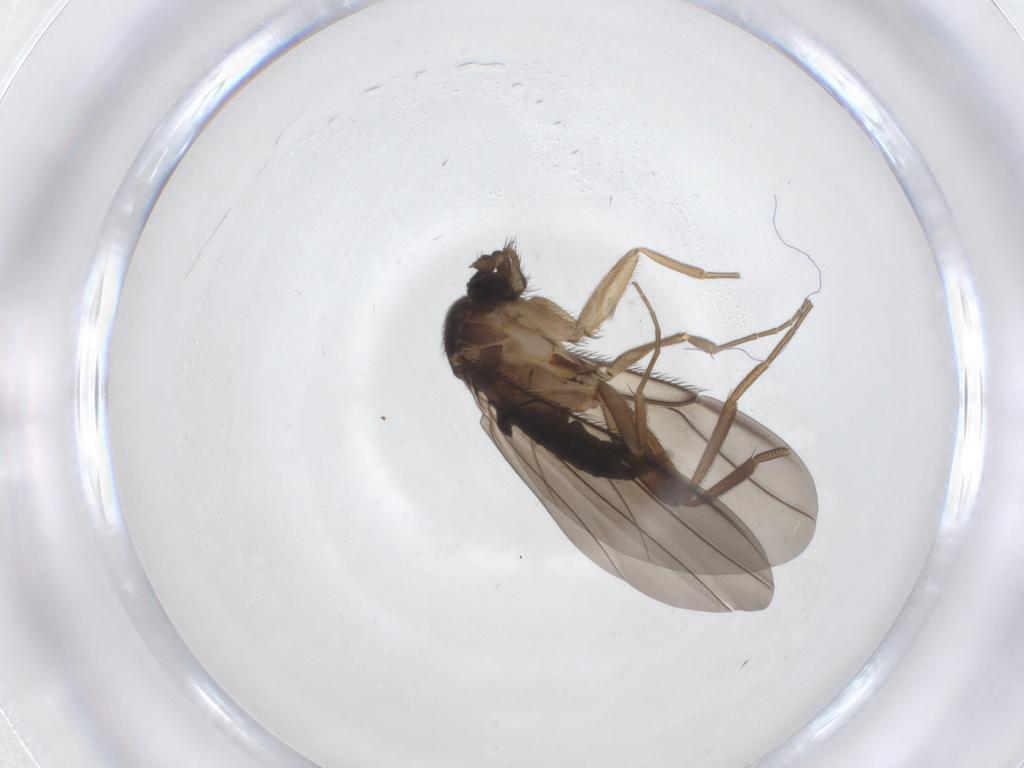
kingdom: Animalia
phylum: Arthropoda
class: Insecta
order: Diptera
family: Phoridae
